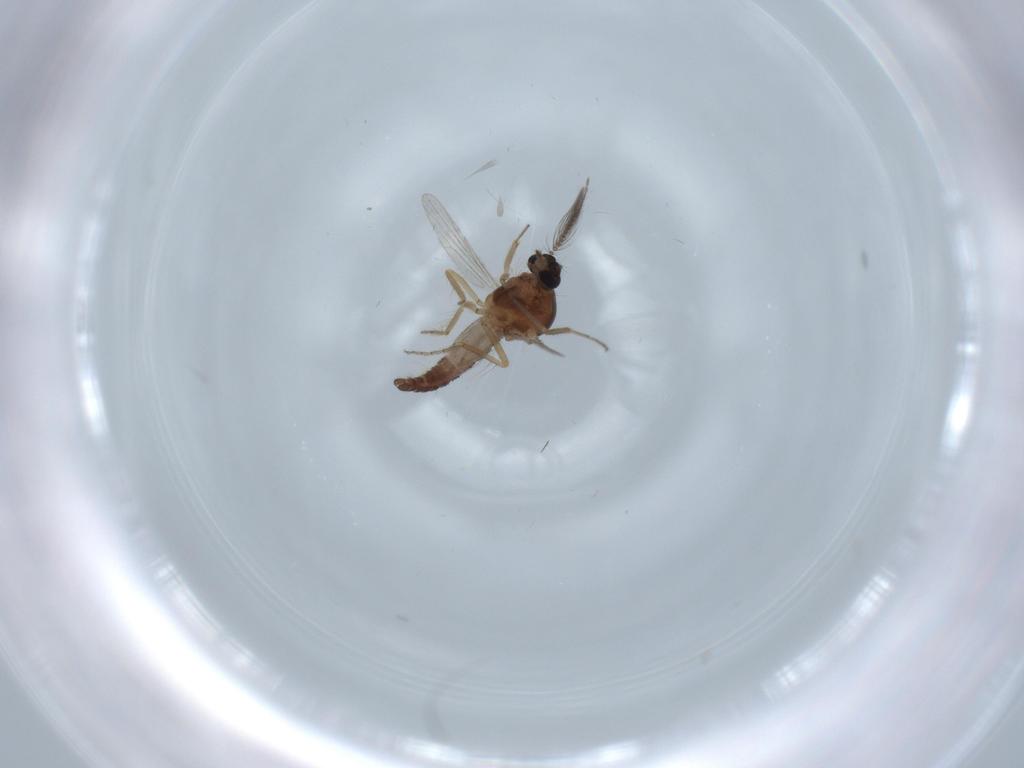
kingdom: Animalia
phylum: Arthropoda
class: Insecta
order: Diptera
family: Ceratopogonidae
